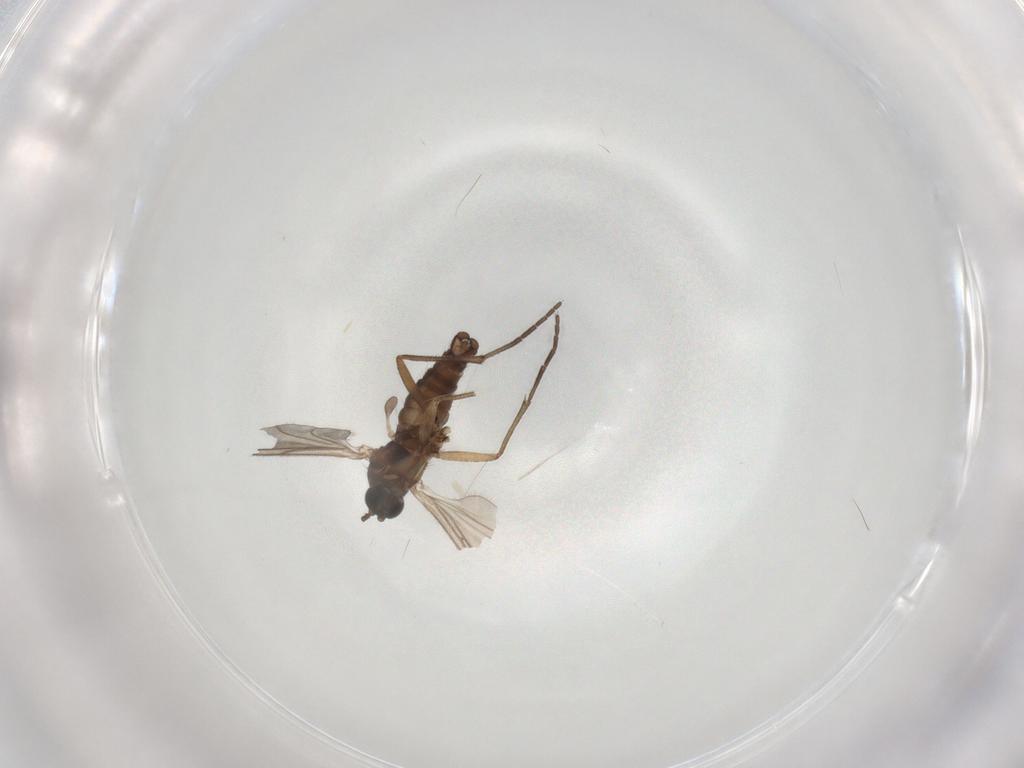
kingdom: Animalia
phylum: Arthropoda
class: Insecta
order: Diptera
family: Sciaridae
